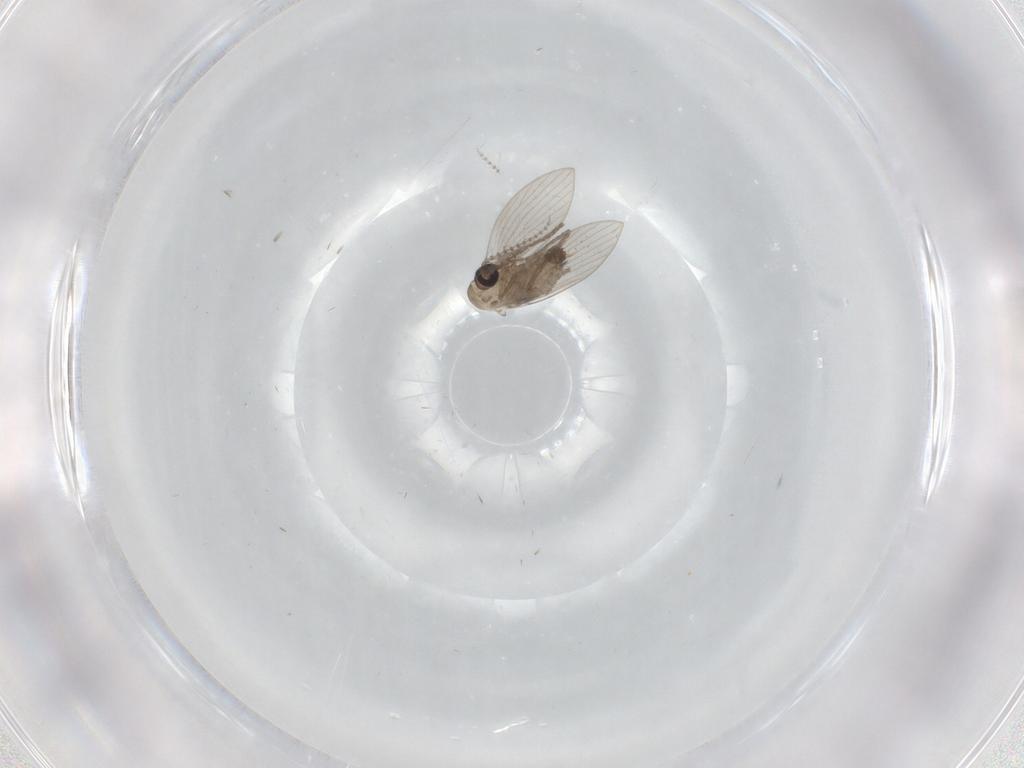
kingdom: Animalia
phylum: Arthropoda
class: Insecta
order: Diptera
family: Psychodidae
